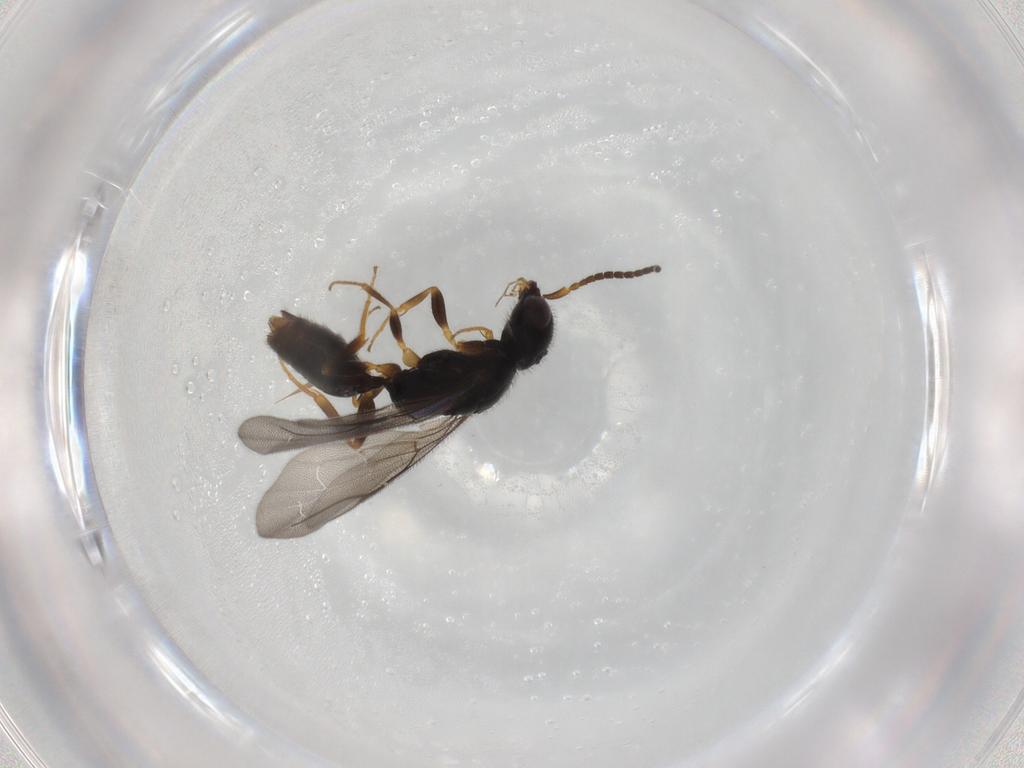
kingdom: Animalia
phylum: Arthropoda
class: Insecta
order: Hymenoptera
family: Bethylidae
